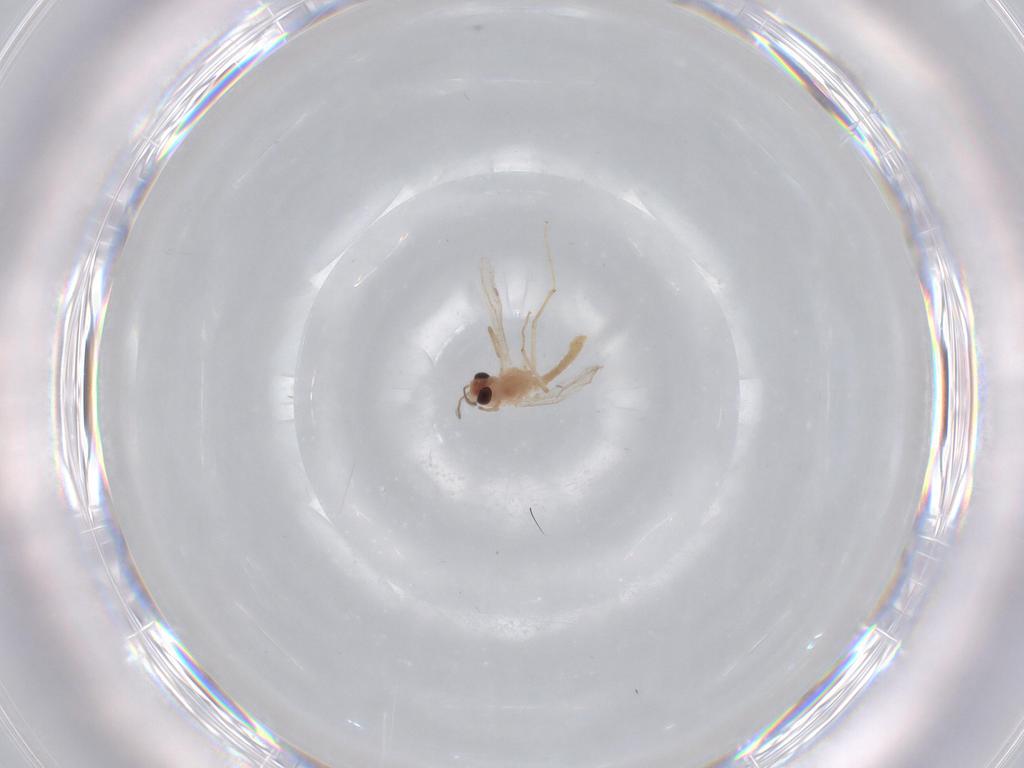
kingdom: Animalia
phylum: Arthropoda
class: Insecta
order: Diptera
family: Chironomidae
